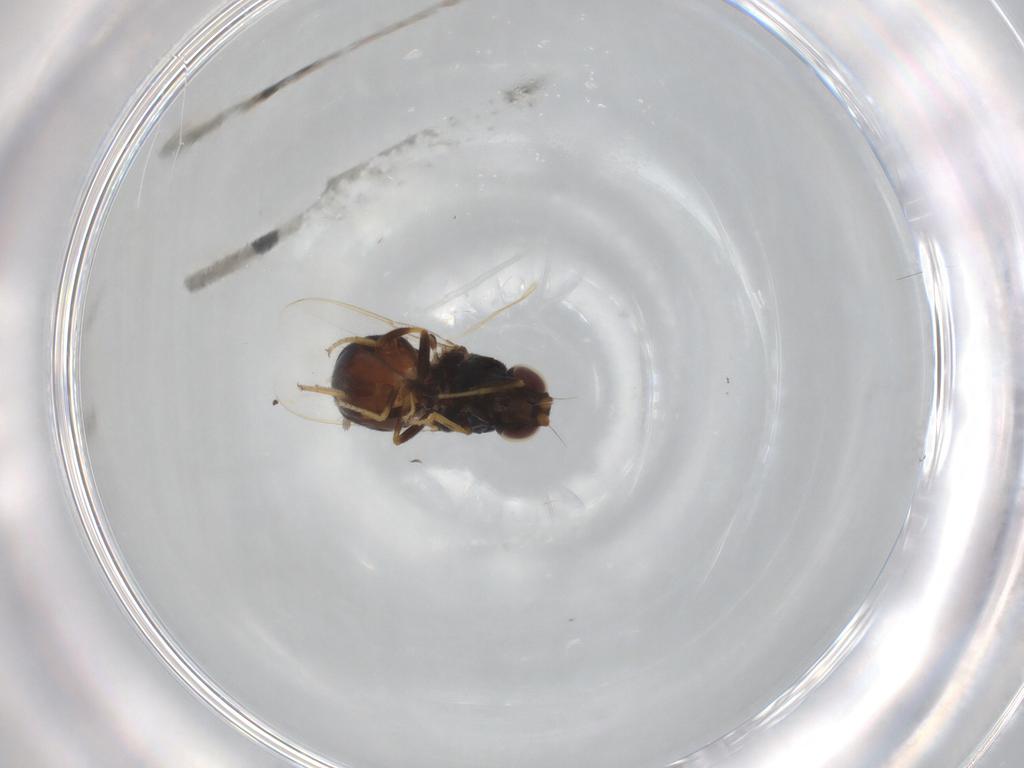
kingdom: Animalia
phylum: Arthropoda
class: Insecta
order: Diptera
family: Chloropidae
